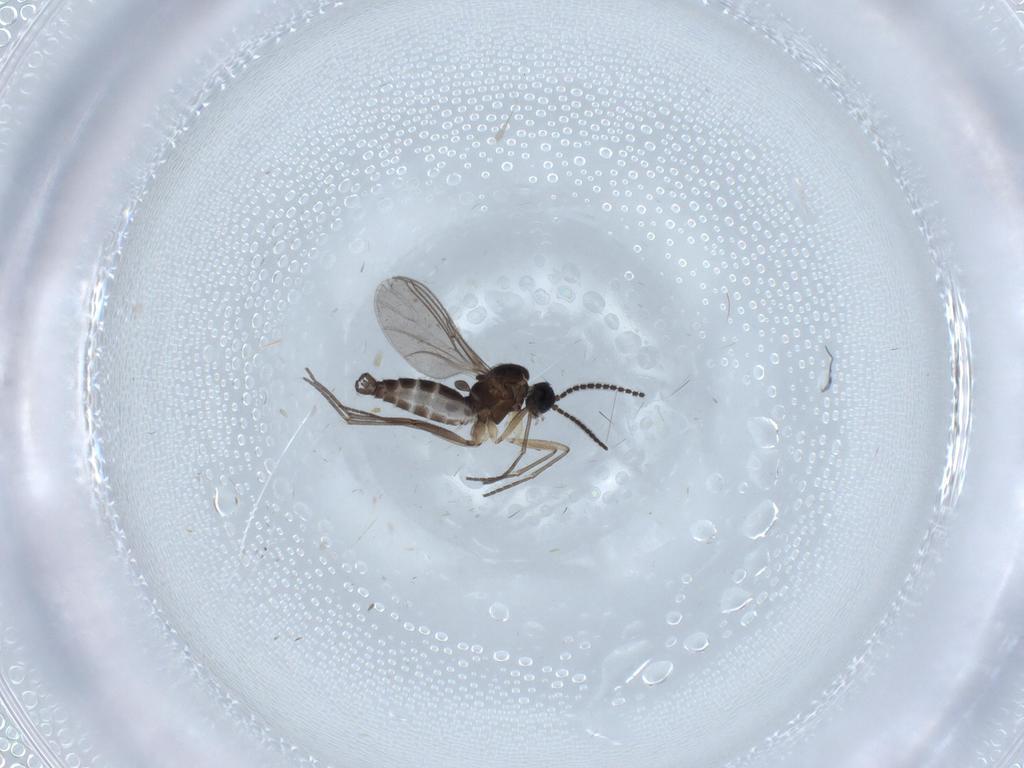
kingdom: Animalia
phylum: Arthropoda
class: Insecta
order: Diptera
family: Sciaridae
